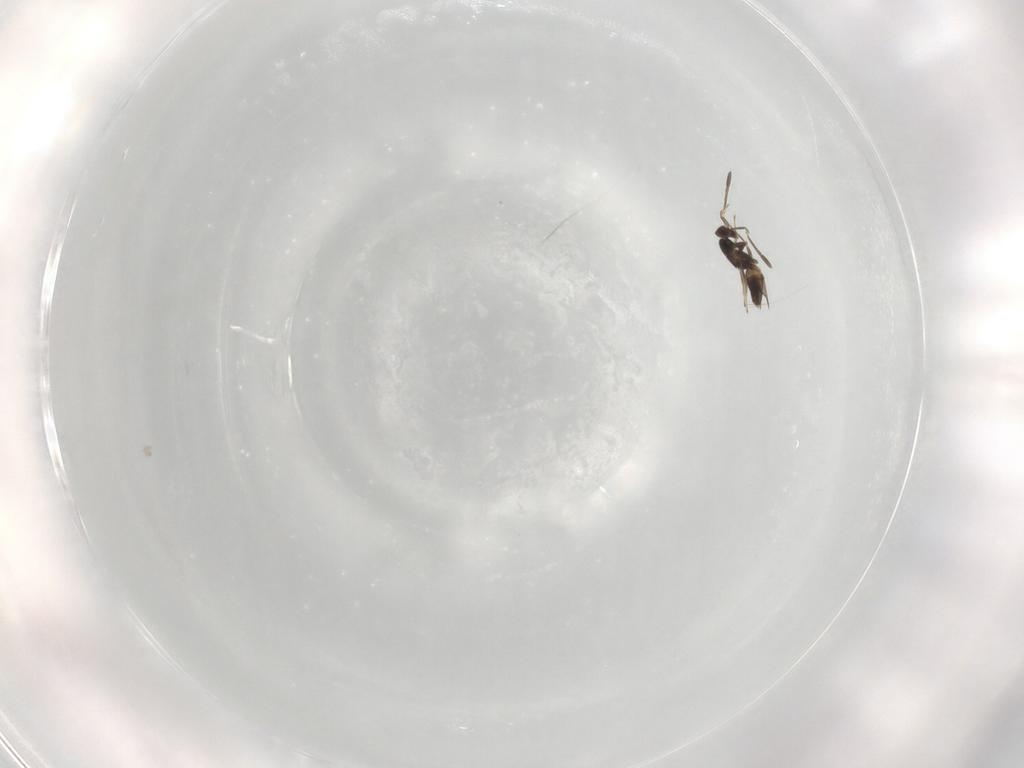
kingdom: Animalia
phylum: Arthropoda
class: Insecta
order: Hymenoptera
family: Mymaridae
